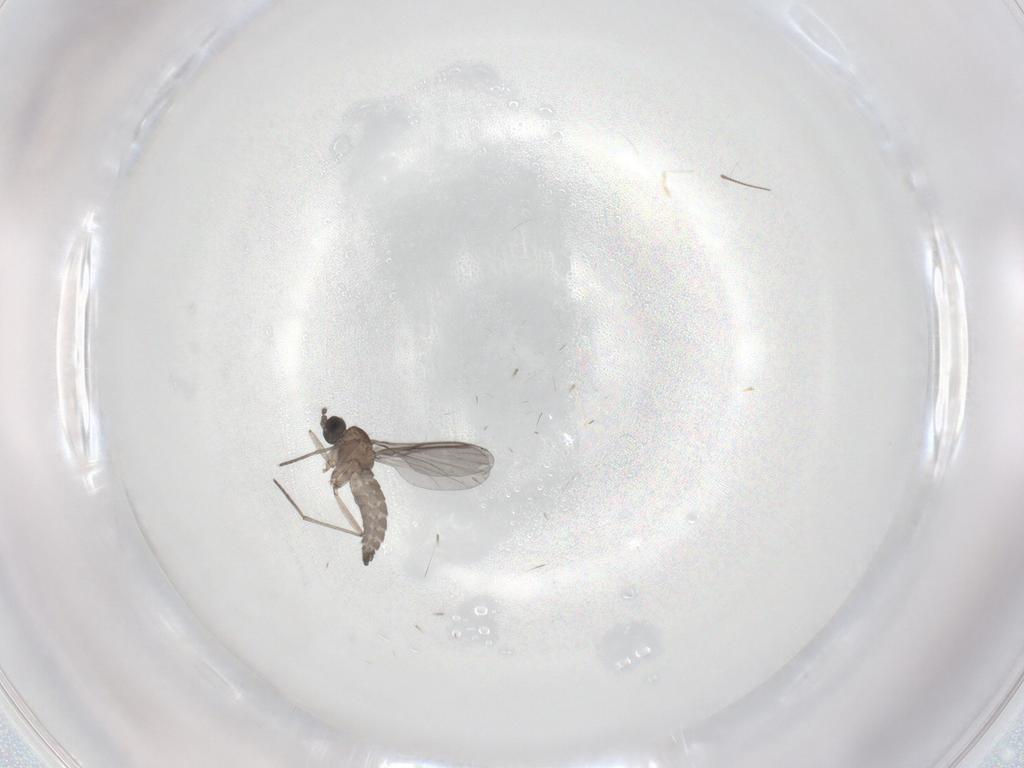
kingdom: Animalia
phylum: Arthropoda
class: Insecta
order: Diptera
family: Chironomidae
